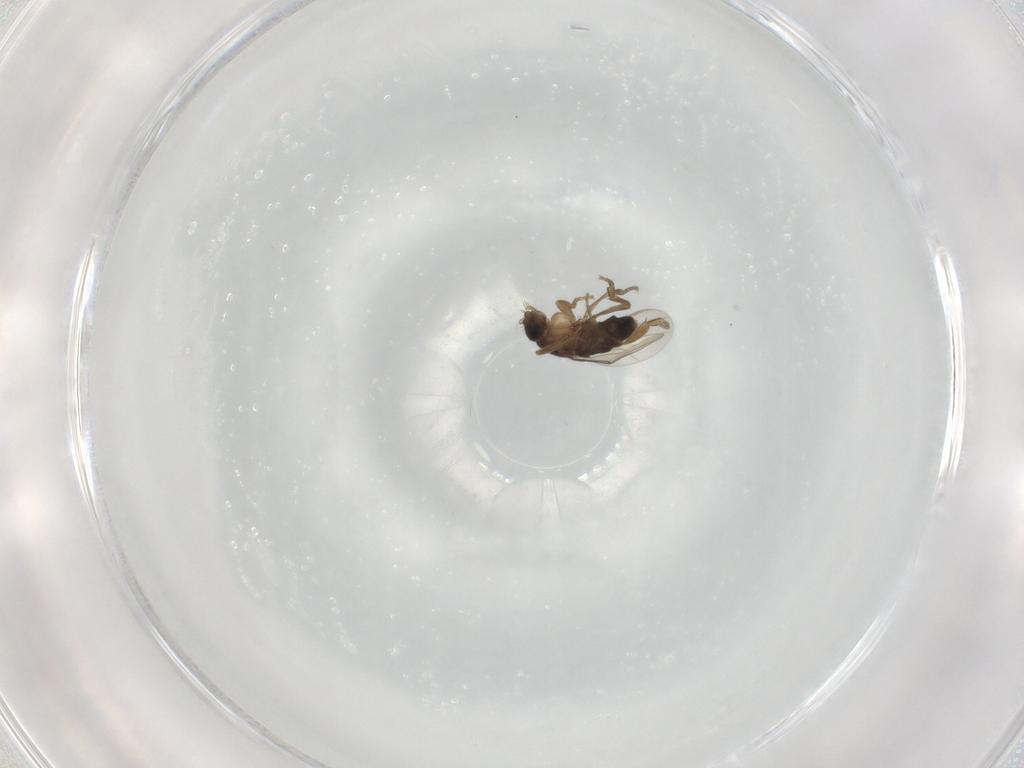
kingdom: Animalia
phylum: Arthropoda
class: Insecta
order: Diptera
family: Phoridae
